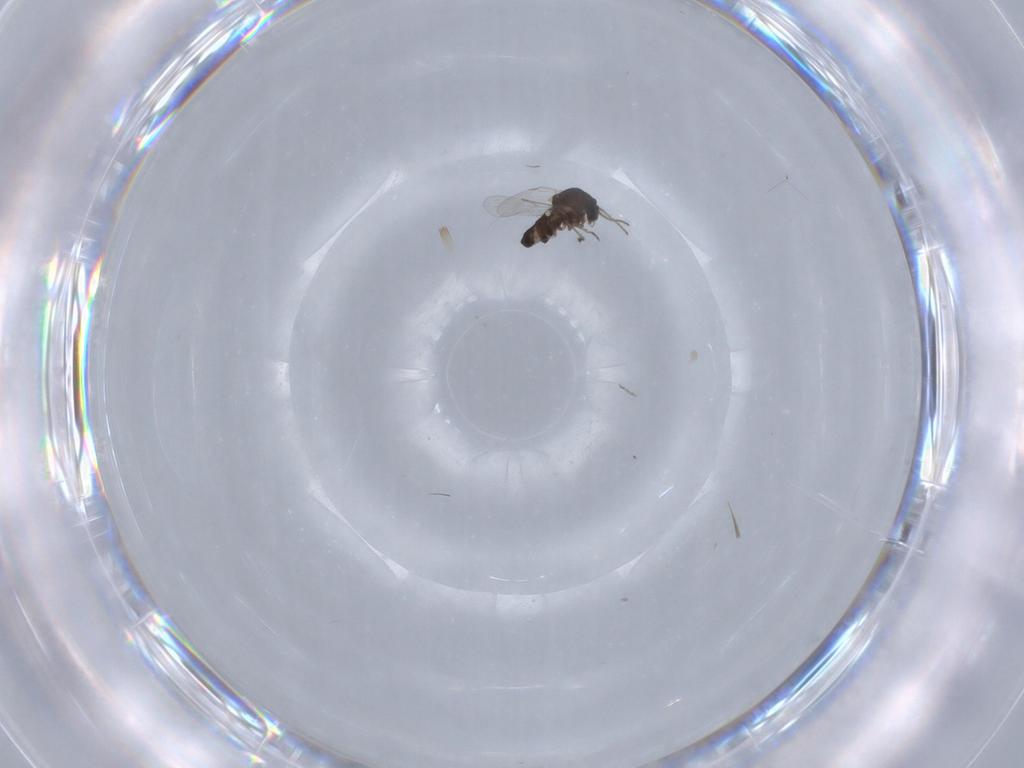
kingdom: Animalia
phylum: Arthropoda
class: Insecta
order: Diptera
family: Ceratopogonidae
